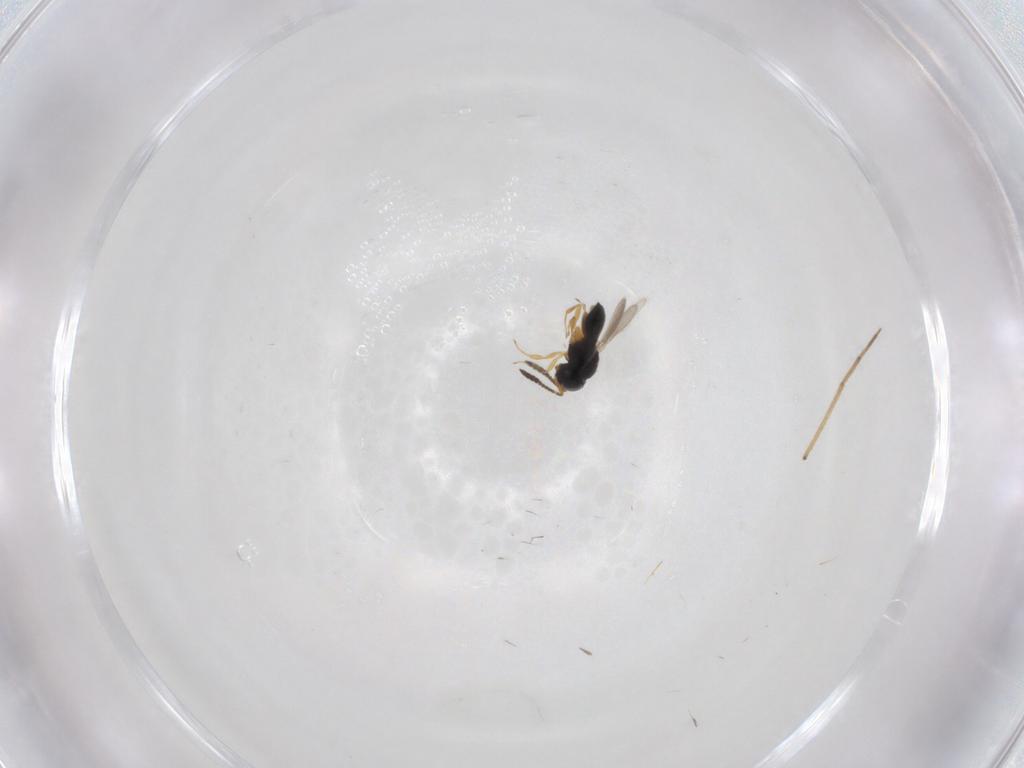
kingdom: Animalia
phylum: Arthropoda
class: Insecta
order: Hymenoptera
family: Scelionidae
